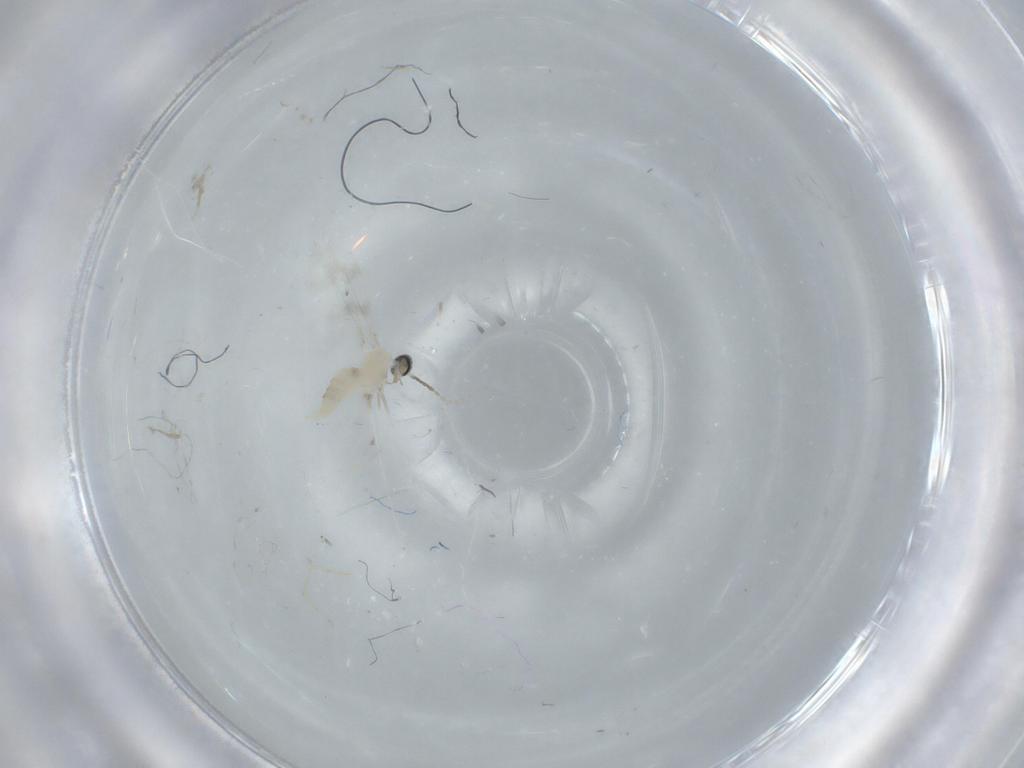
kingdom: Animalia
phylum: Arthropoda
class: Insecta
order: Diptera
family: Cecidomyiidae
